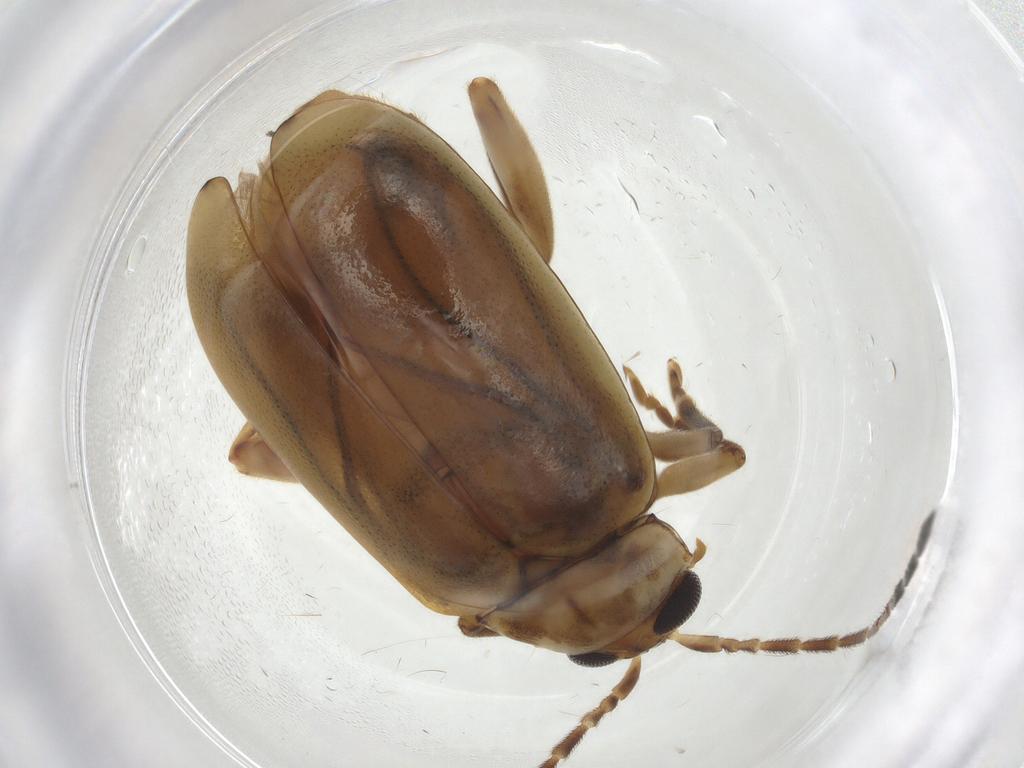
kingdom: Animalia
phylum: Arthropoda
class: Insecta
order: Coleoptera
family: Chrysomelidae
